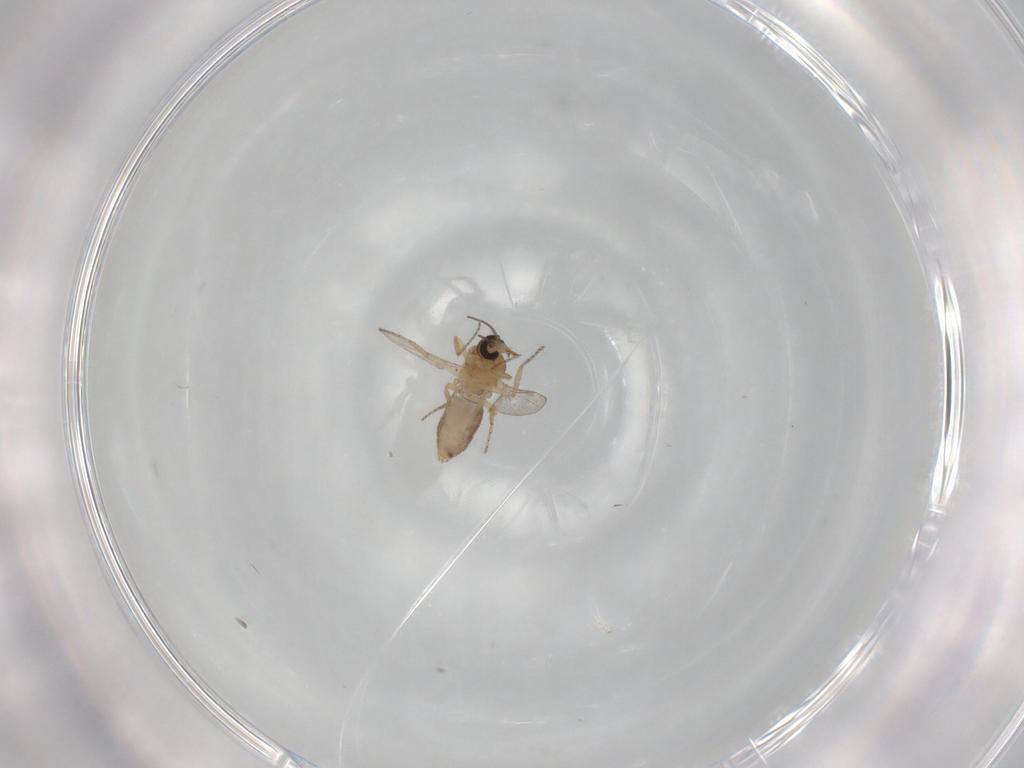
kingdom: Animalia
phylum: Arthropoda
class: Insecta
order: Diptera
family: Ceratopogonidae
